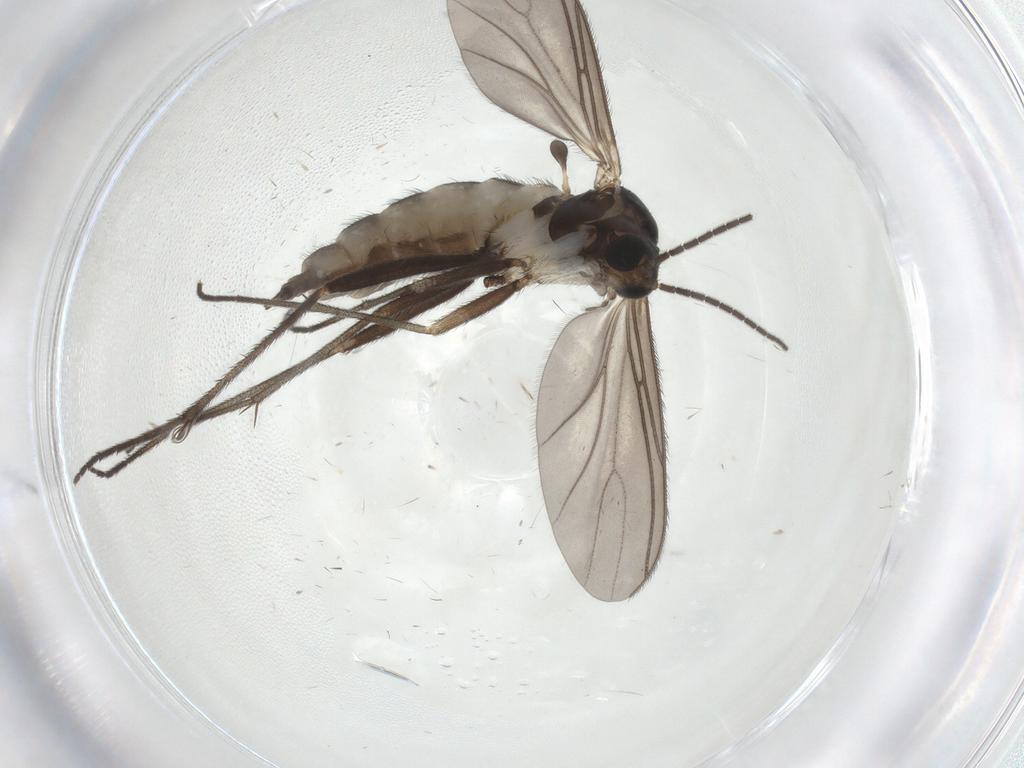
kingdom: Animalia
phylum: Arthropoda
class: Insecta
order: Diptera
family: Sciaridae
